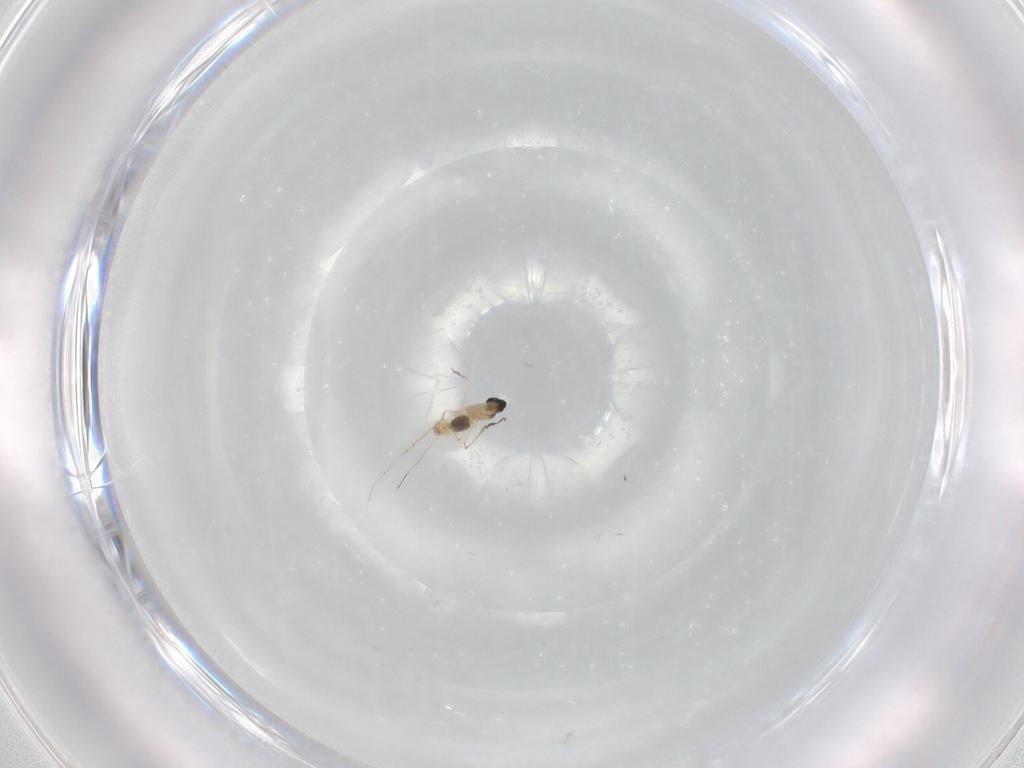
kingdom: Animalia
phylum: Arthropoda
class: Insecta
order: Diptera
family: Cecidomyiidae
